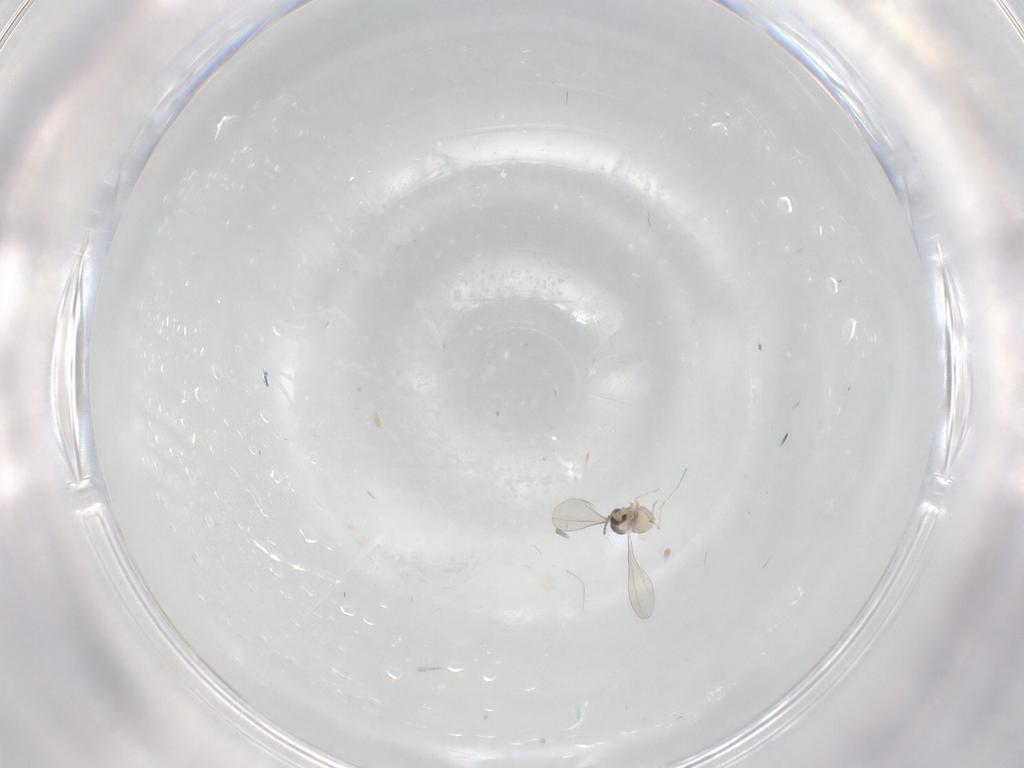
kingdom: Animalia
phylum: Arthropoda
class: Insecta
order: Diptera
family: Cecidomyiidae
